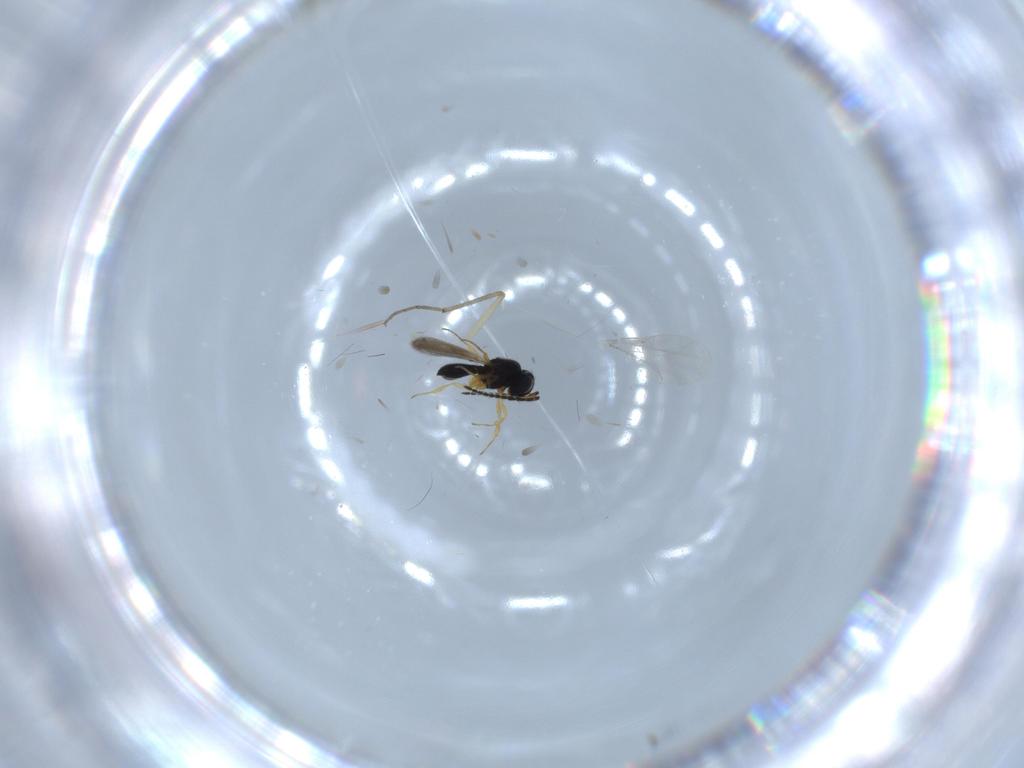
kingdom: Animalia
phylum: Arthropoda
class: Insecta
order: Hymenoptera
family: Scelionidae
